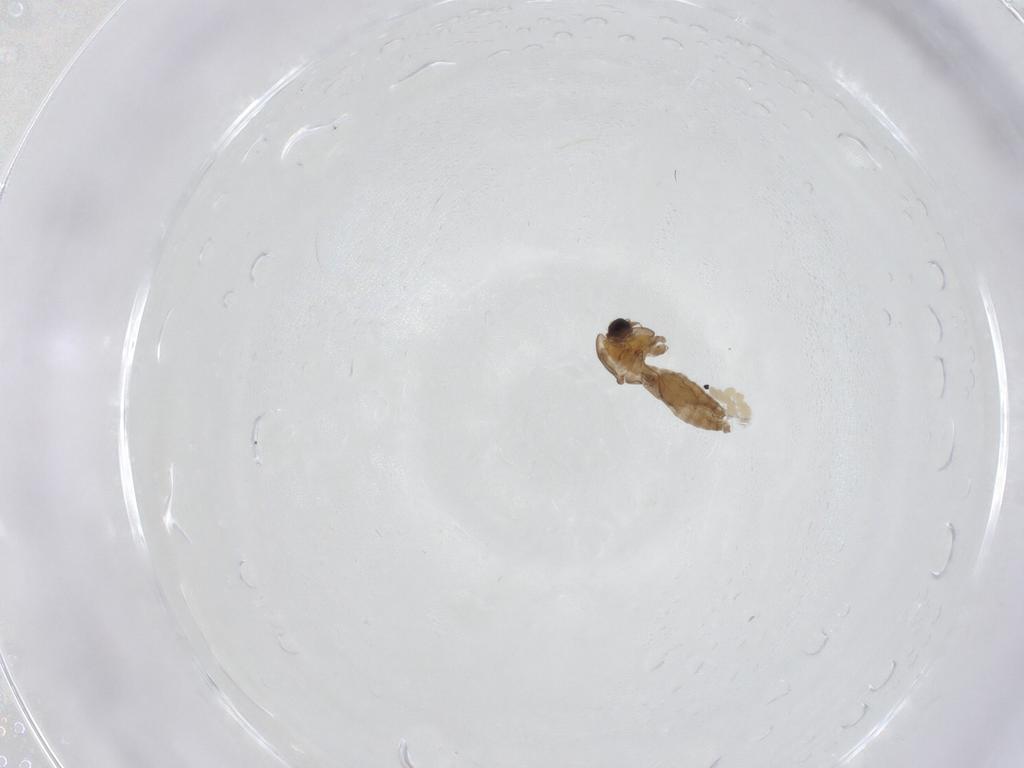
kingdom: Animalia
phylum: Arthropoda
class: Insecta
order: Diptera
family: Chironomidae
